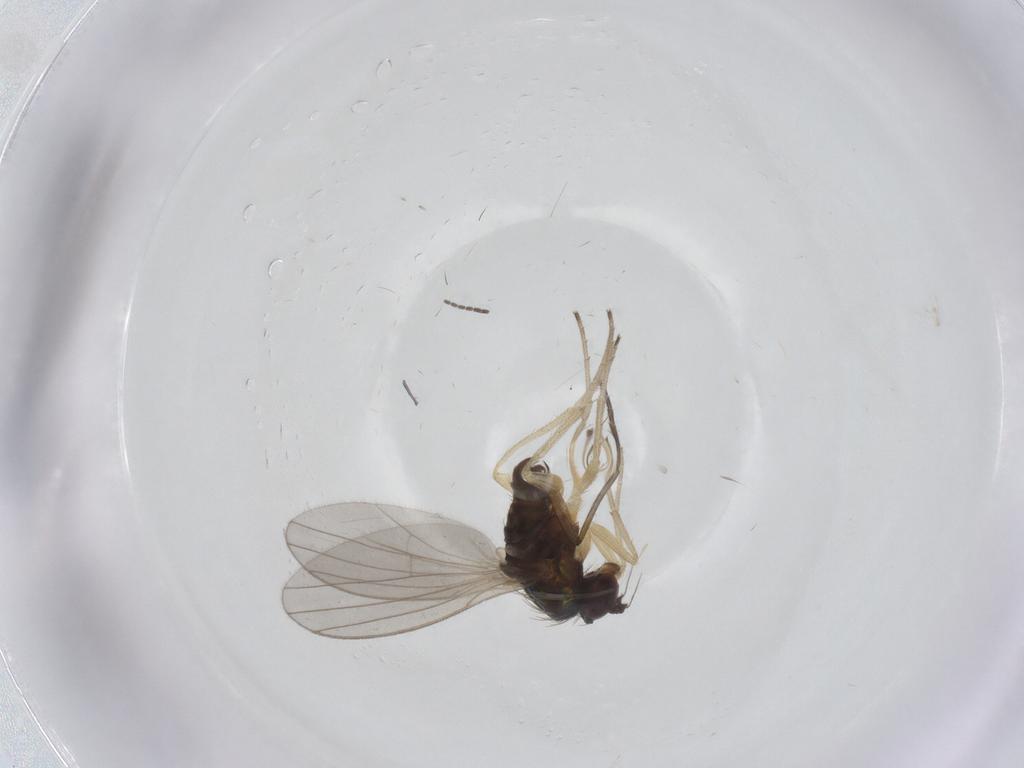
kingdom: Animalia
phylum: Arthropoda
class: Insecta
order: Diptera
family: Dolichopodidae
